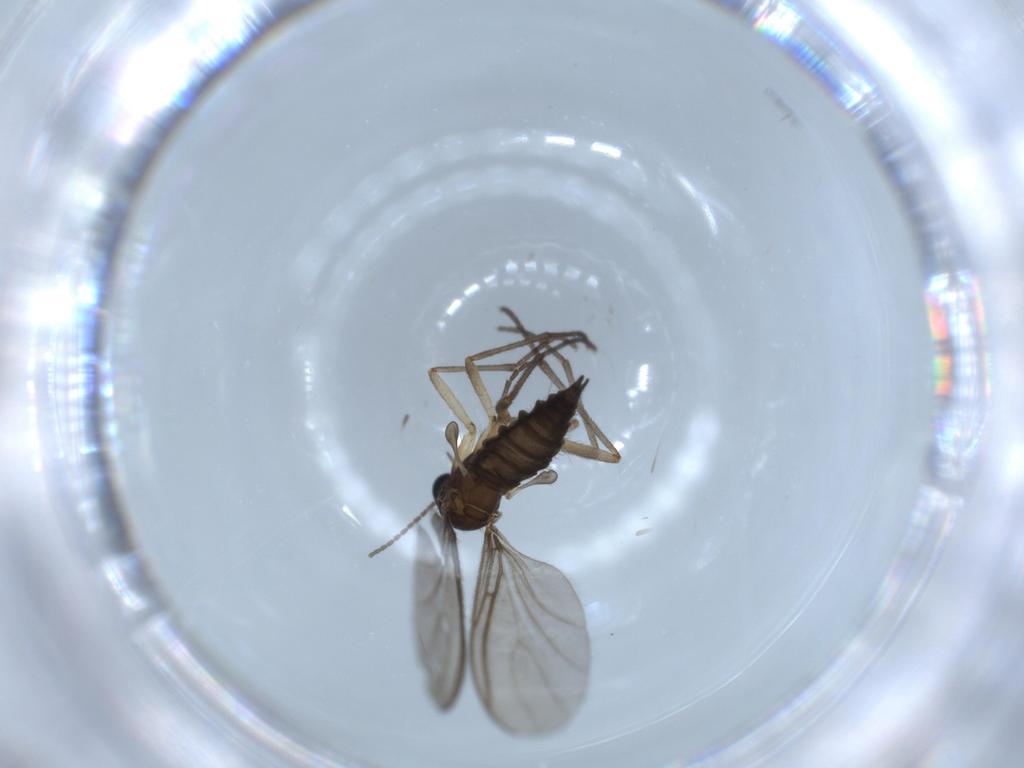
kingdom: Animalia
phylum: Arthropoda
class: Insecta
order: Diptera
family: Sciaridae
